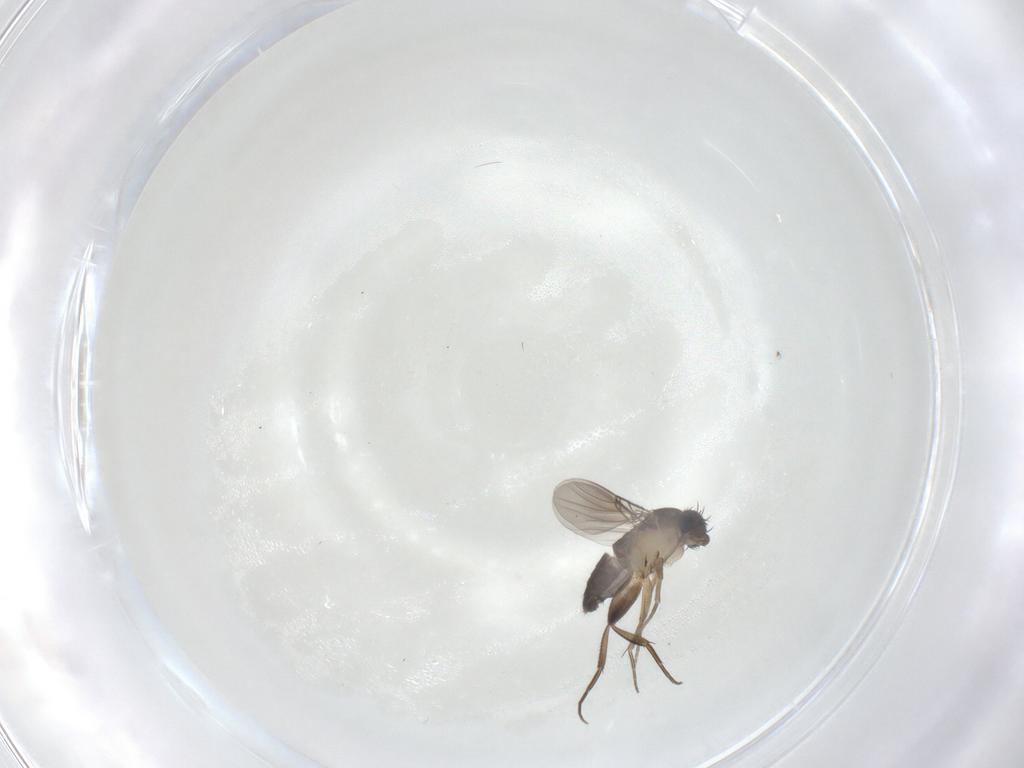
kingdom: Animalia
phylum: Arthropoda
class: Insecta
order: Diptera
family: Phoridae
